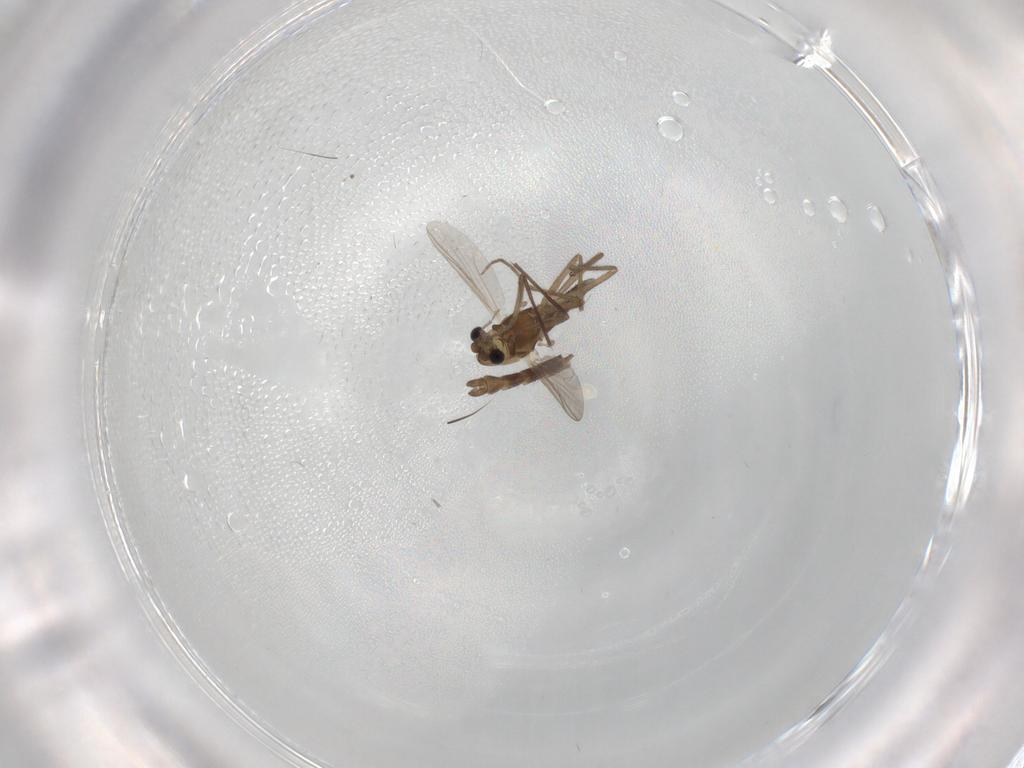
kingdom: Animalia
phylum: Arthropoda
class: Insecta
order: Diptera
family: Chironomidae
